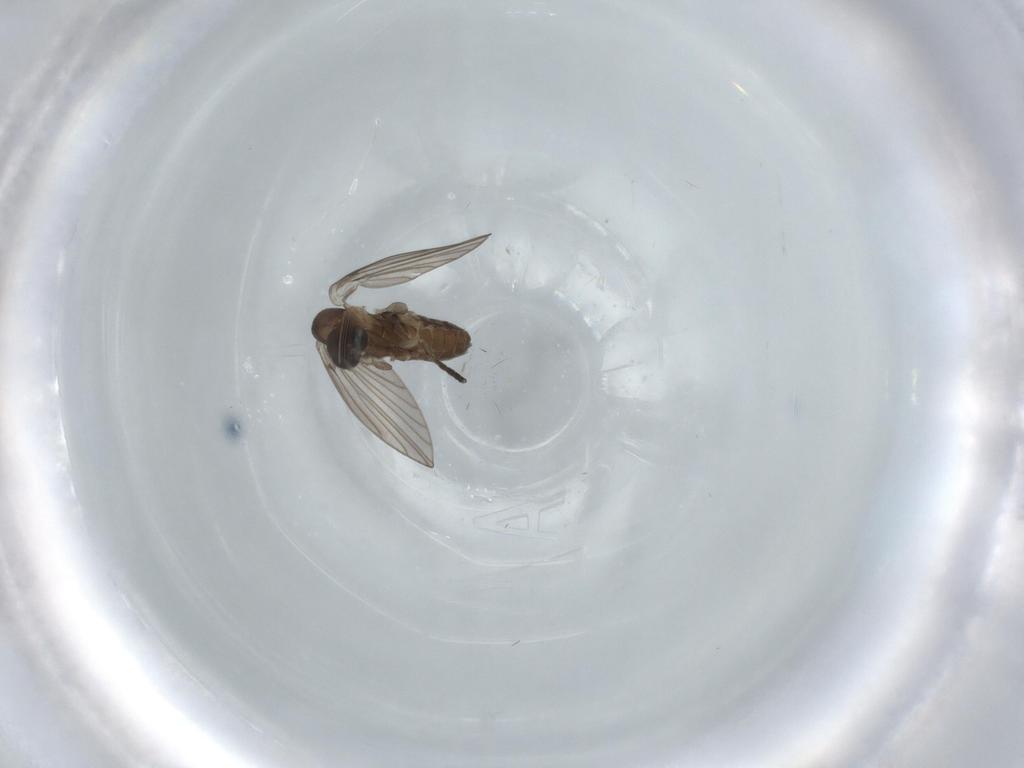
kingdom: Animalia
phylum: Arthropoda
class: Insecta
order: Diptera
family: Psychodidae
